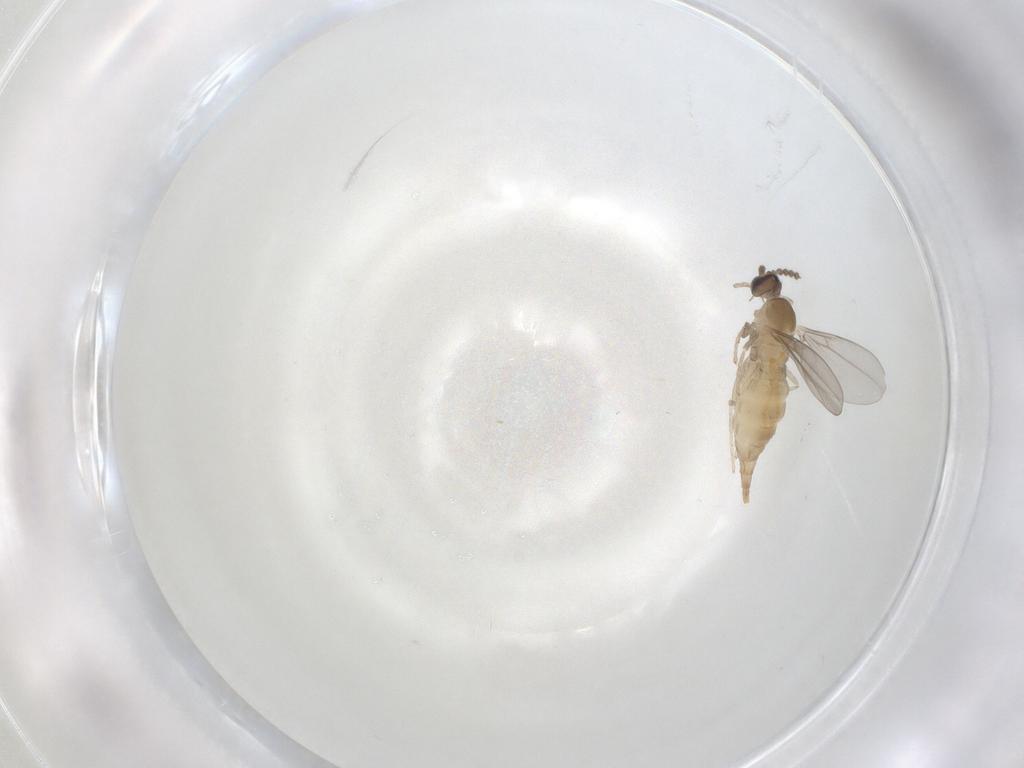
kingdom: Animalia
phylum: Arthropoda
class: Insecta
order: Diptera
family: Cecidomyiidae
